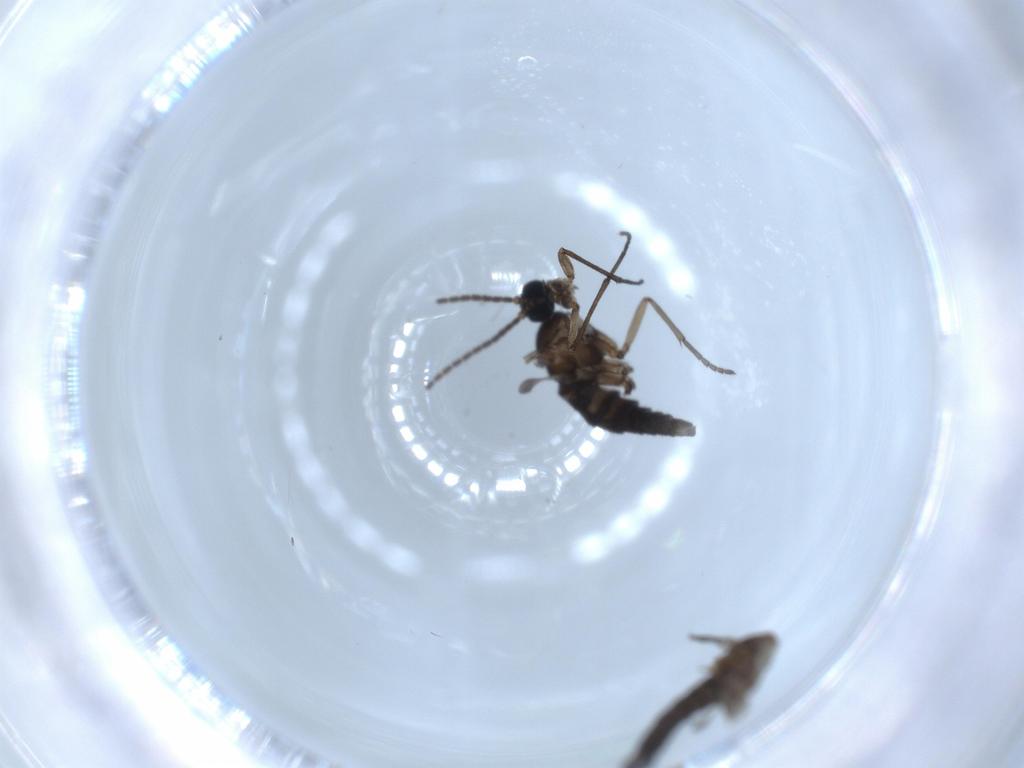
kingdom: Animalia
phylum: Arthropoda
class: Insecta
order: Diptera
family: Sciaridae
